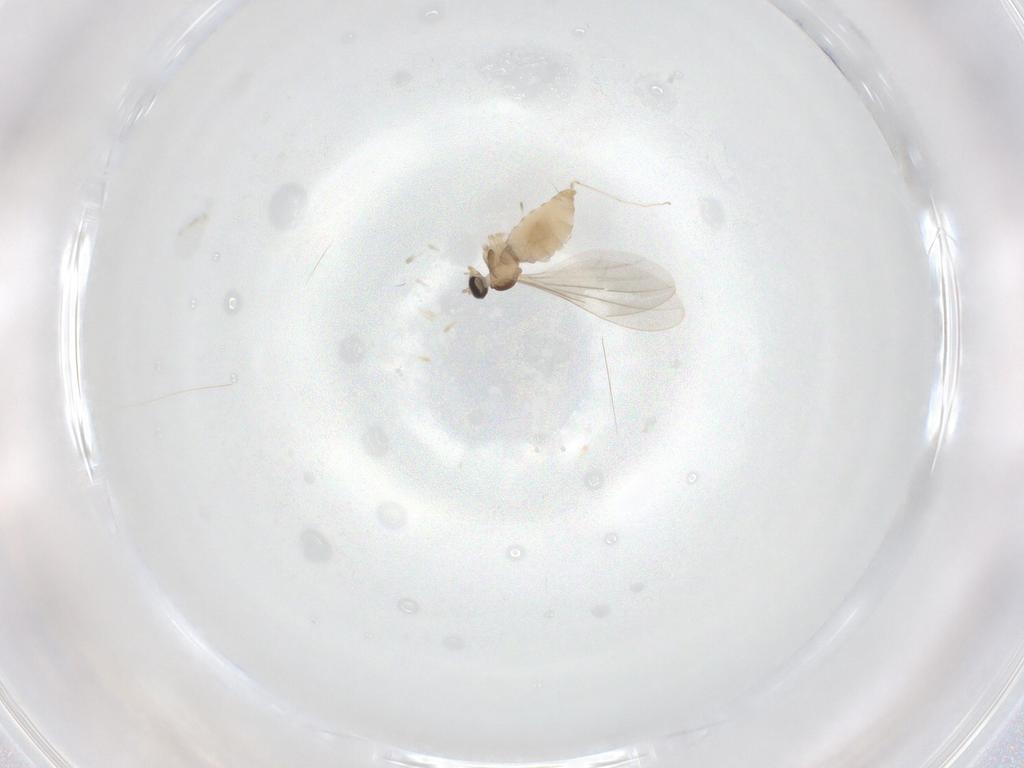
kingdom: Animalia
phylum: Arthropoda
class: Insecta
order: Diptera
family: Cecidomyiidae
